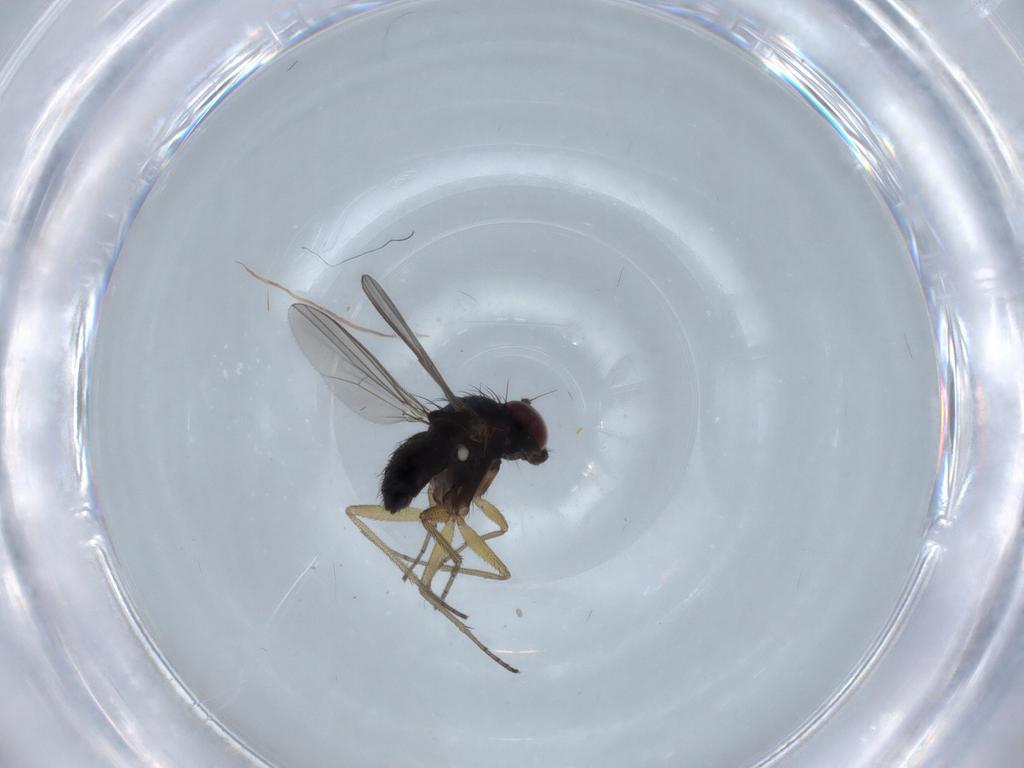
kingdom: Animalia
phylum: Arthropoda
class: Insecta
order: Diptera
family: Dolichopodidae
